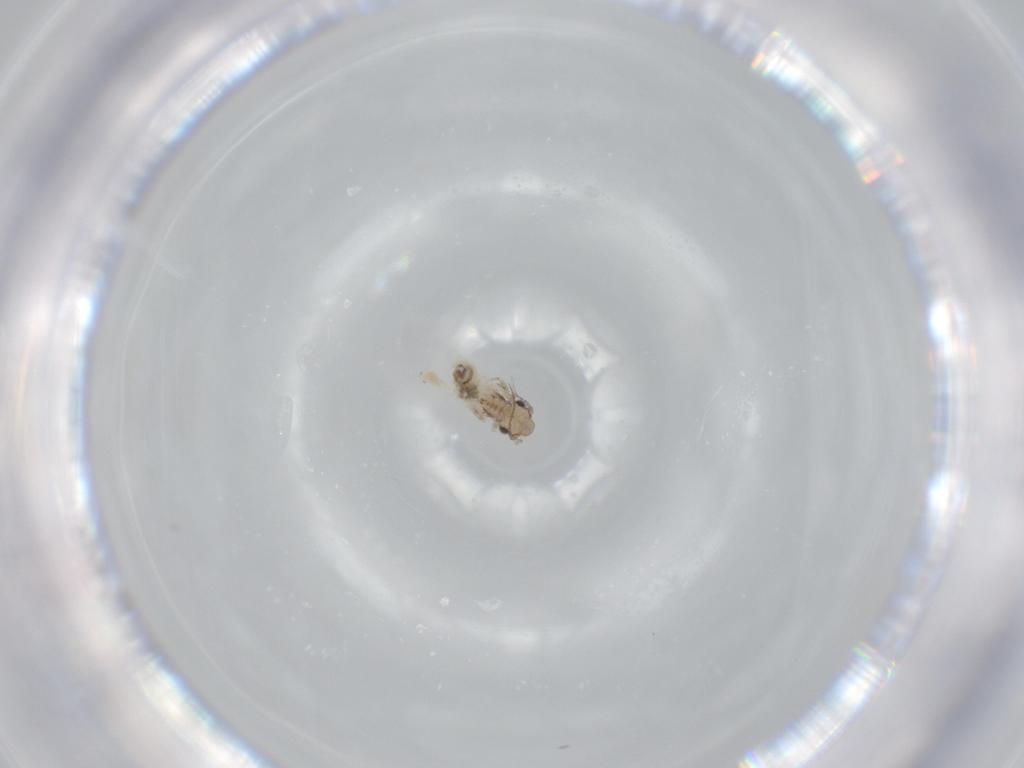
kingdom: Animalia
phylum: Arthropoda
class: Insecta
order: Psocodea
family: Lepidopsocidae
